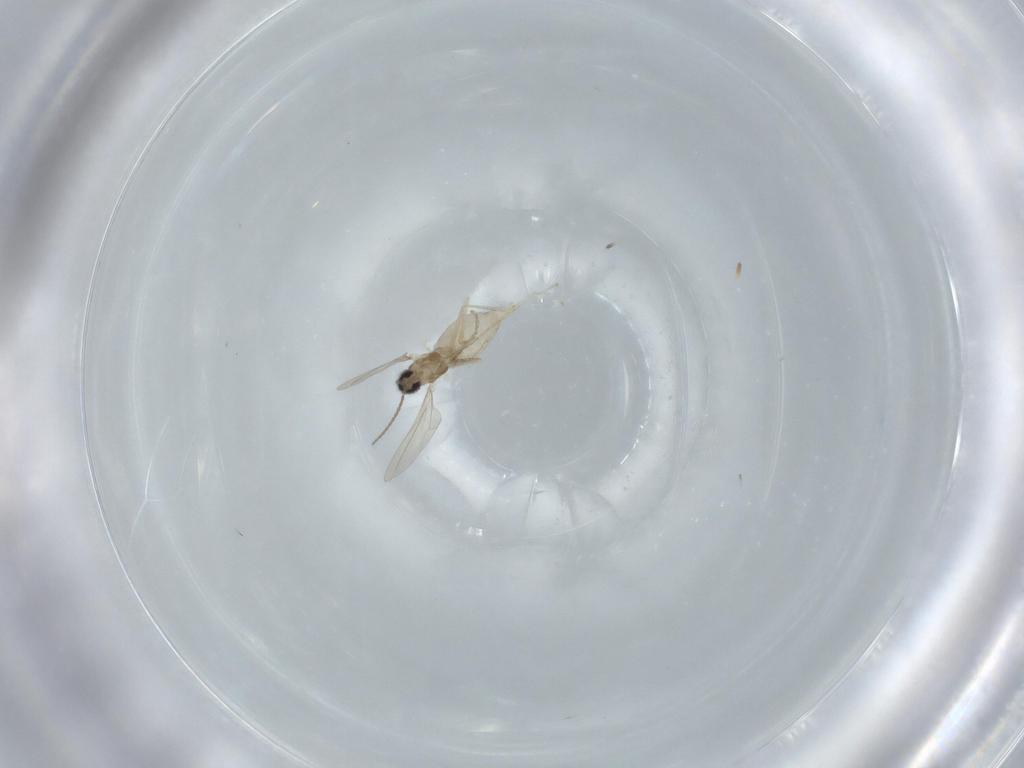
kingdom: Animalia
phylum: Arthropoda
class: Insecta
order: Diptera
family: Cecidomyiidae
